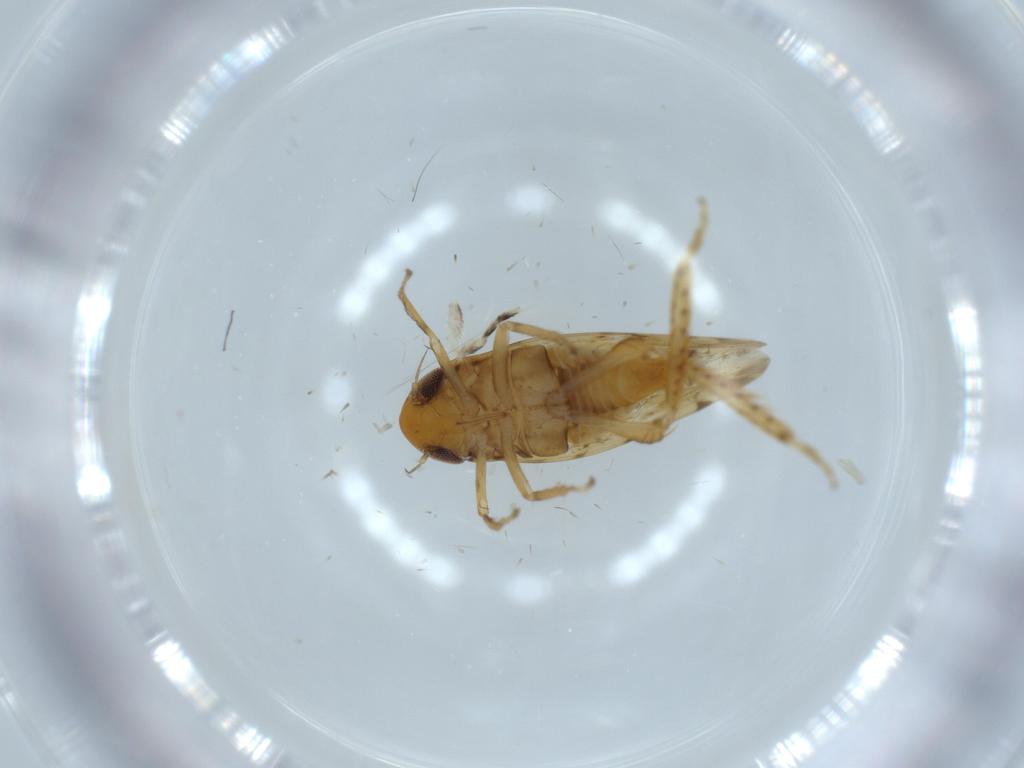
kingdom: Animalia
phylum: Arthropoda
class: Insecta
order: Hemiptera
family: Cicadellidae
